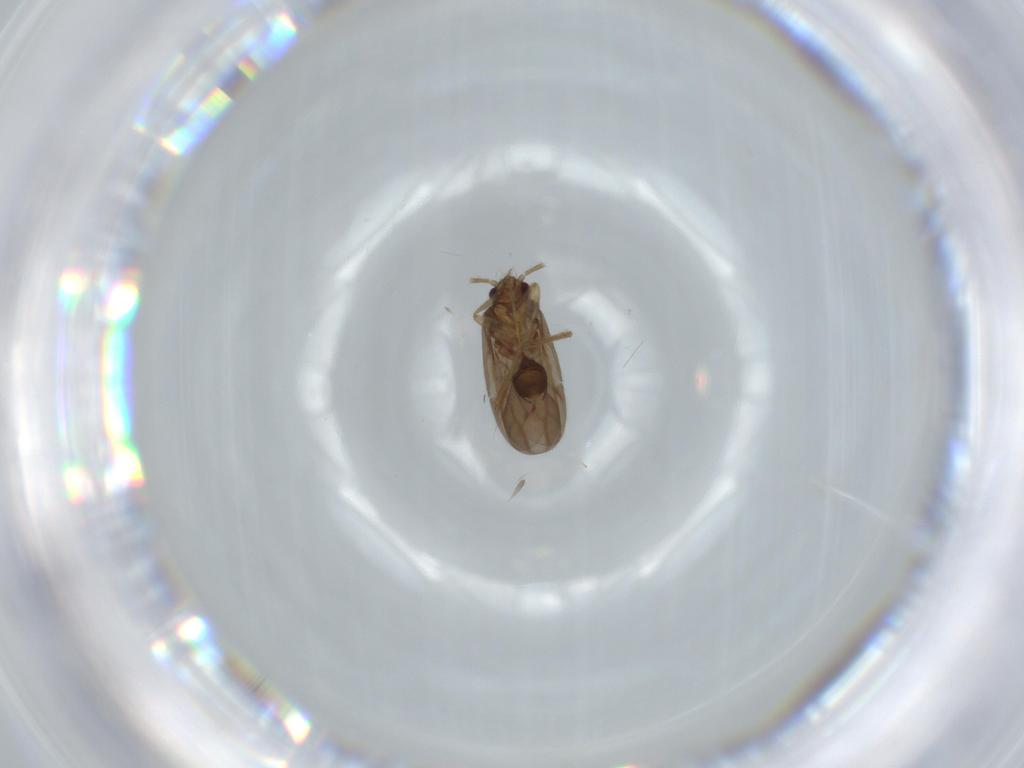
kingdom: Animalia
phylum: Arthropoda
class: Insecta
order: Hemiptera
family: Ceratocombidae
